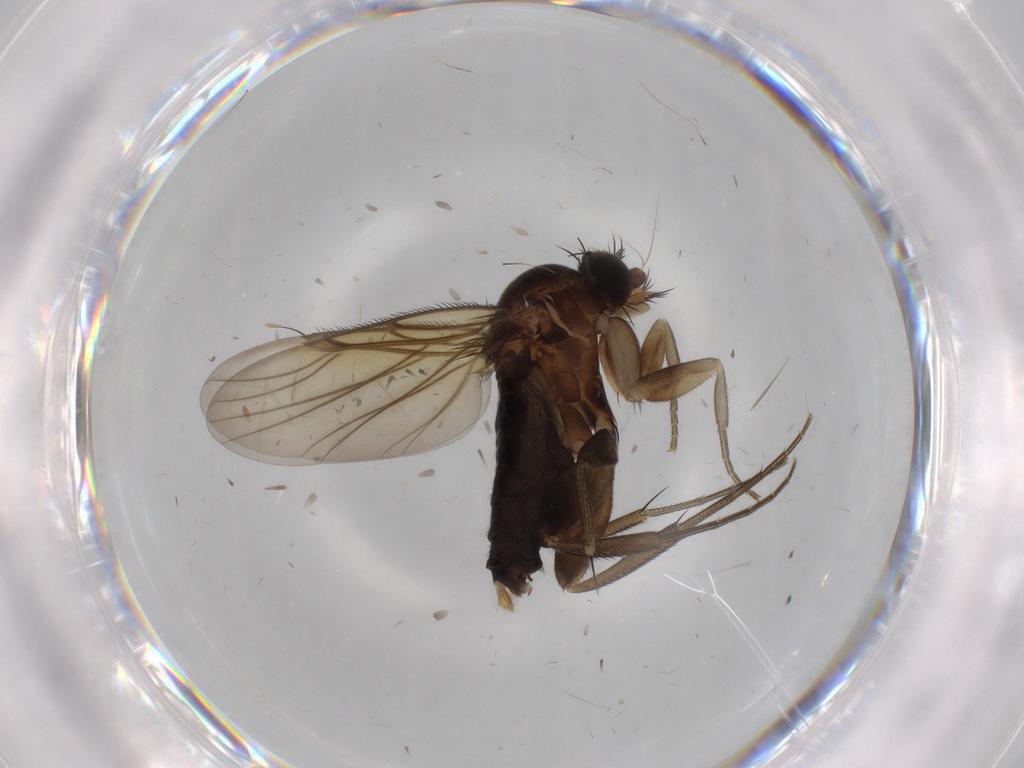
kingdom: Animalia
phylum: Arthropoda
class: Insecta
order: Diptera
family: Phoridae
